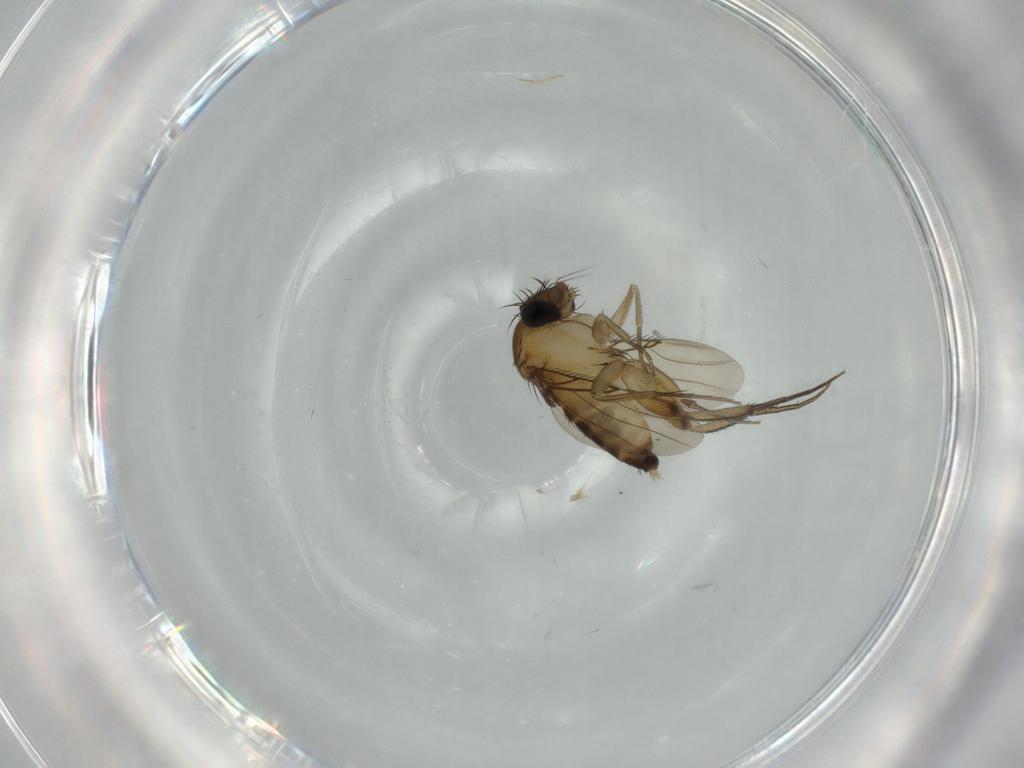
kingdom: Animalia
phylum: Arthropoda
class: Insecta
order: Diptera
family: Phoridae
